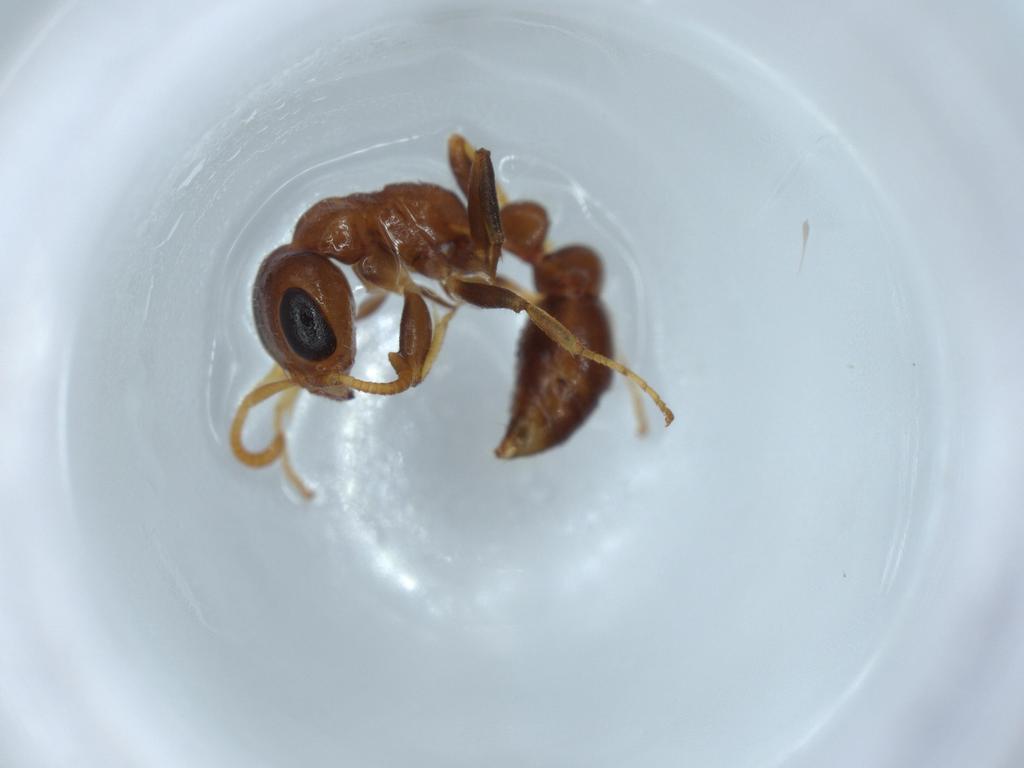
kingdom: Animalia
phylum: Arthropoda
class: Insecta
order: Hymenoptera
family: Formicidae
